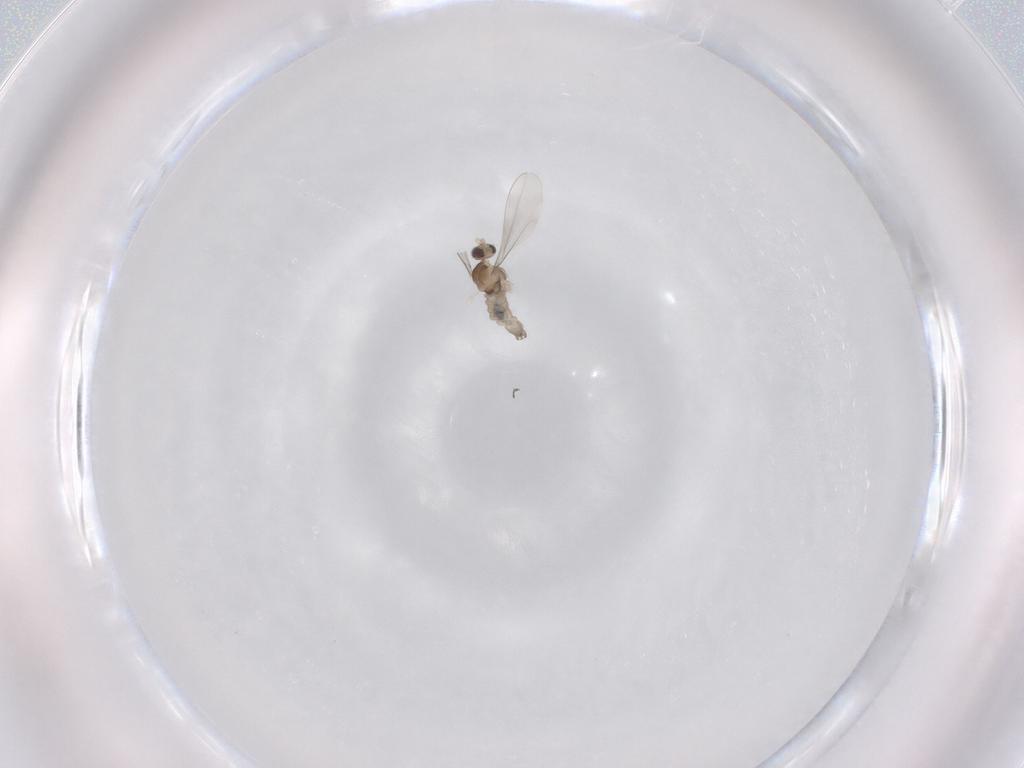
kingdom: Animalia
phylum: Arthropoda
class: Insecta
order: Diptera
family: Cecidomyiidae
